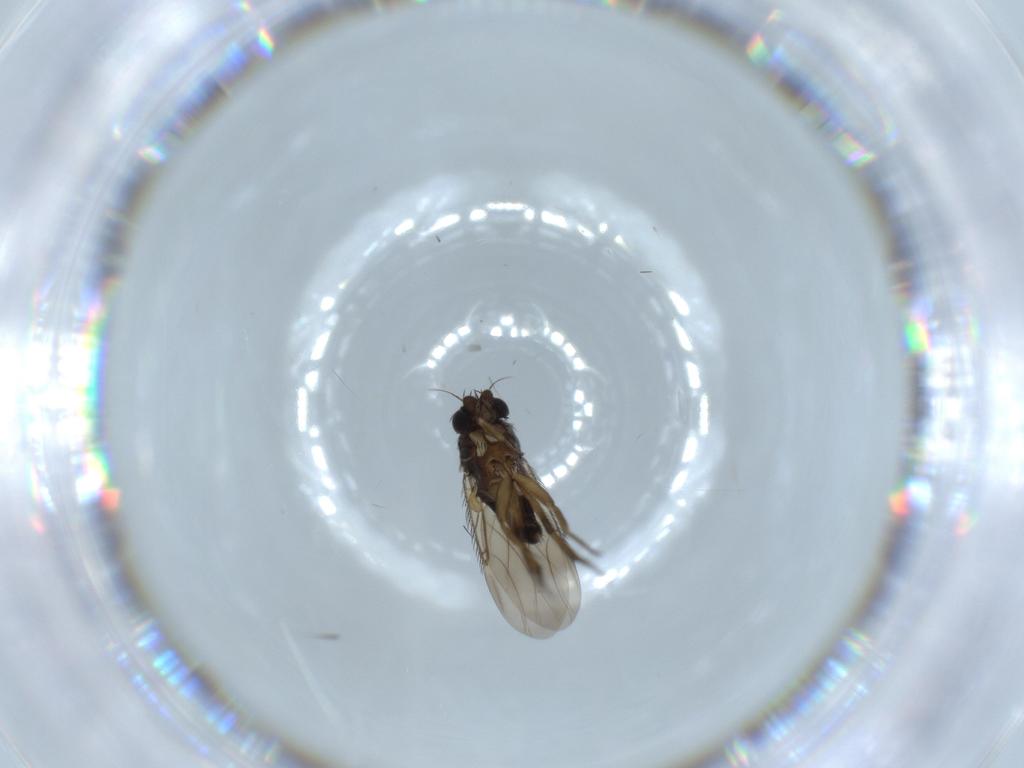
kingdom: Animalia
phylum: Arthropoda
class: Insecta
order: Diptera
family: Phoridae
